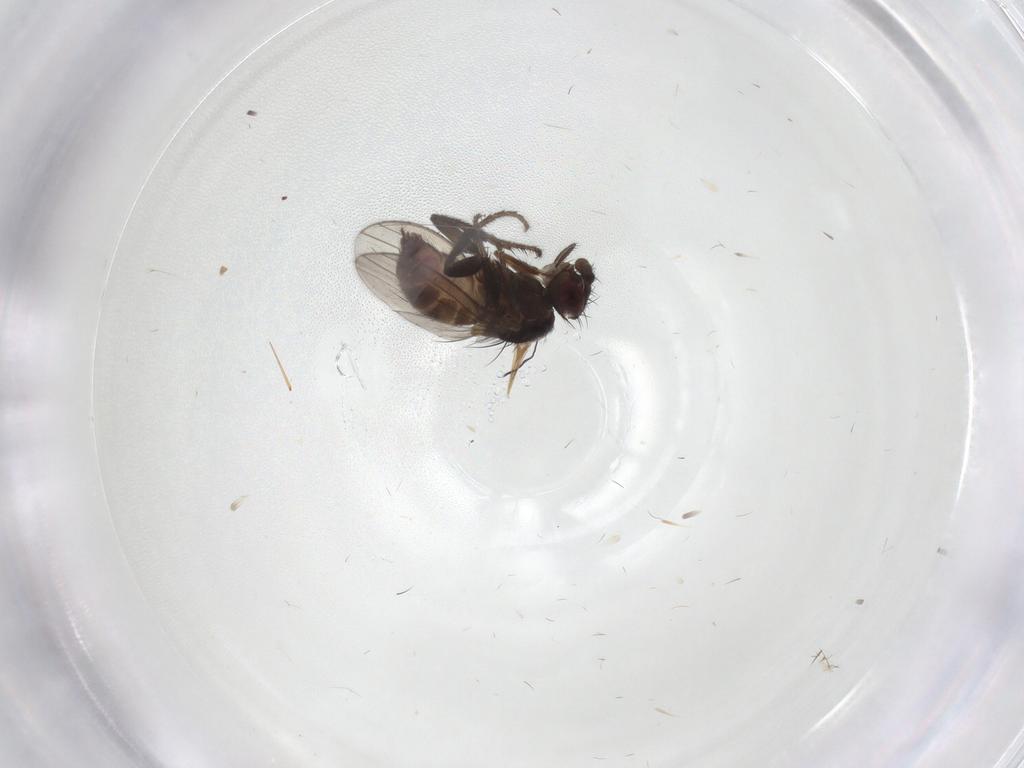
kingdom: Animalia
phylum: Arthropoda
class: Insecta
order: Diptera
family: Milichiidae
